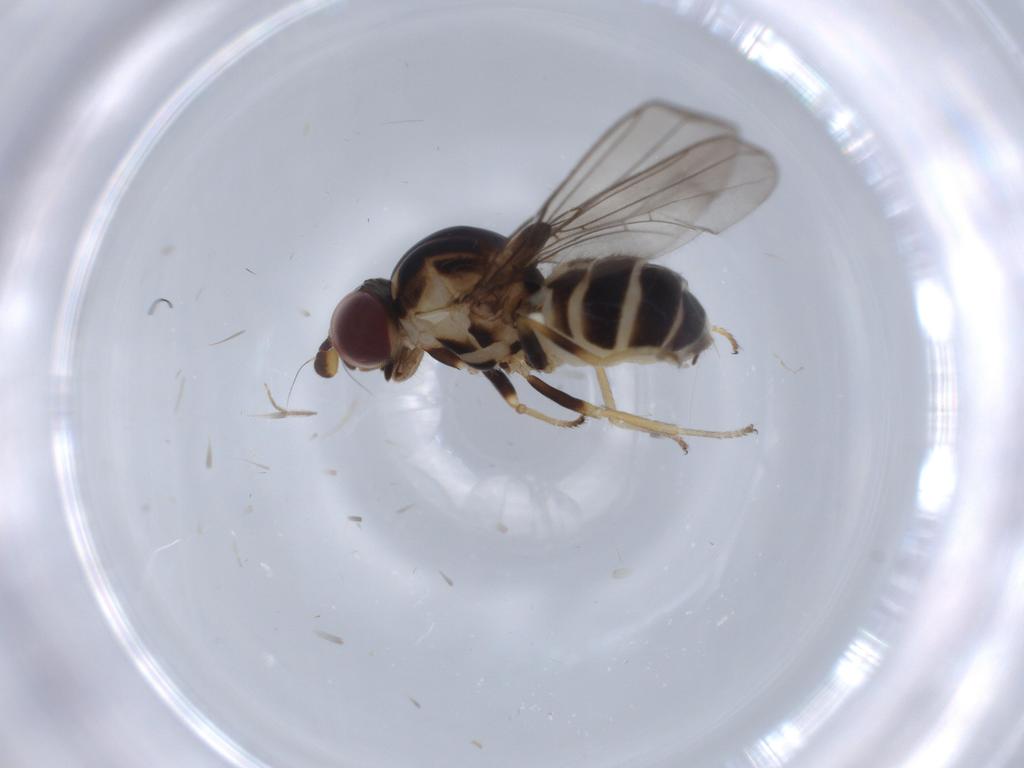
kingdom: Animalia
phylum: Arthropoda
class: Insecta
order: Diptera
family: Chloropidae
